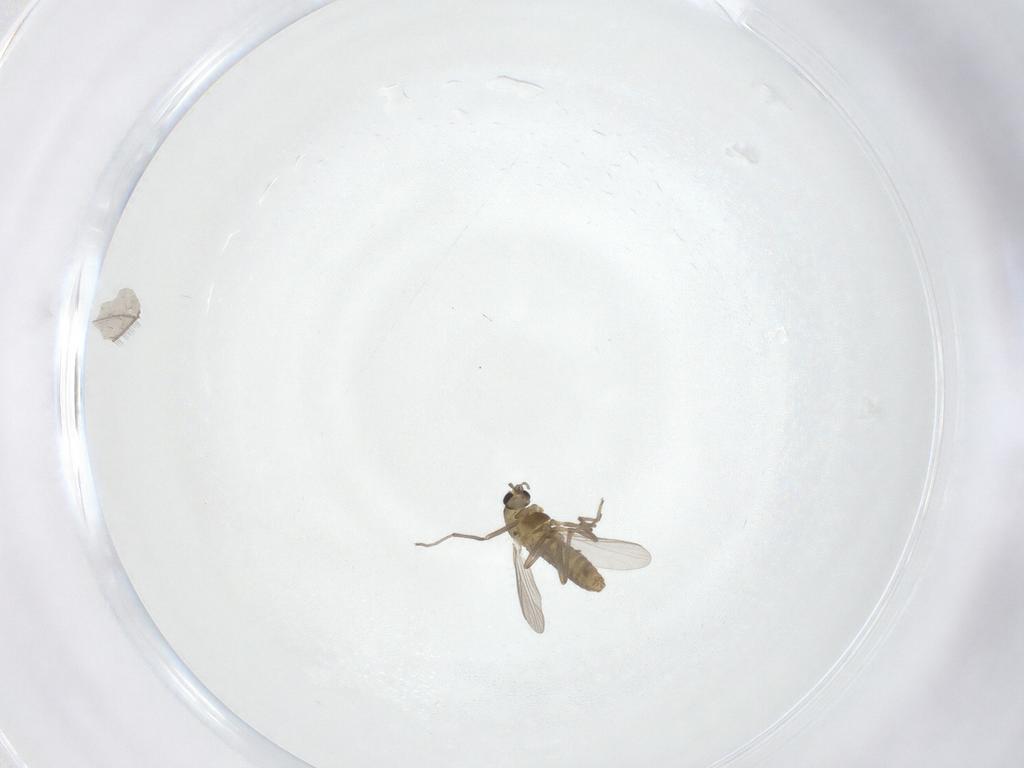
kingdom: Animalia
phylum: Arthropoda
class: Insecta
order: Diptera
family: Chironomidae
